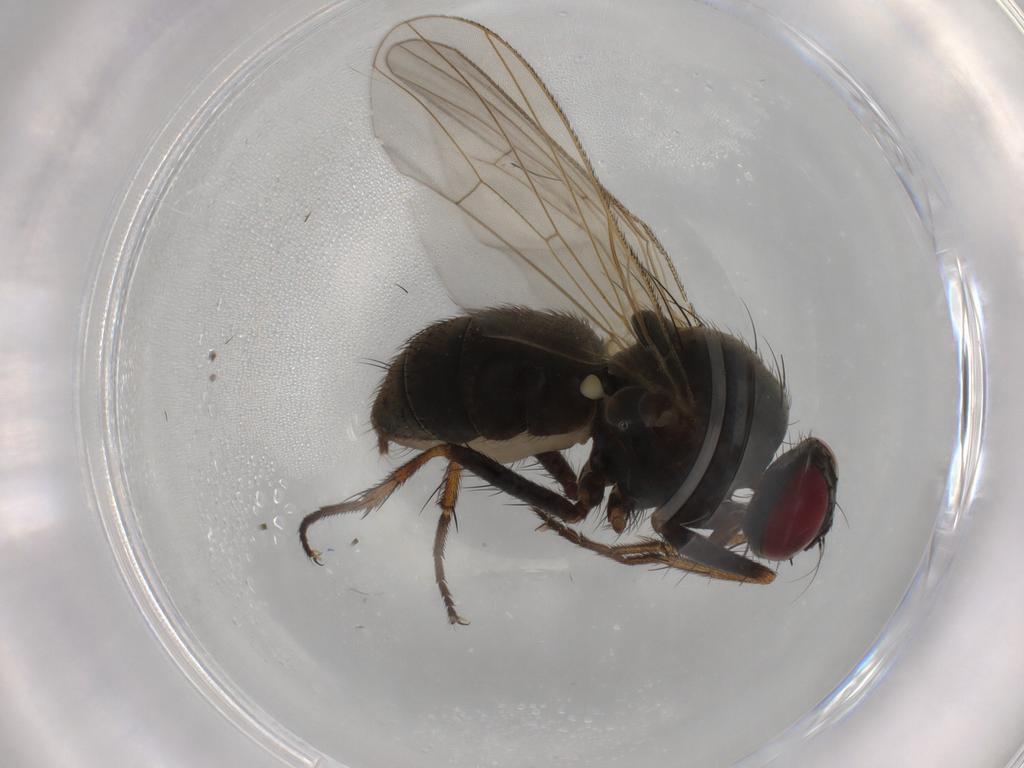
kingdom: Animalia
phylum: Arthropoda
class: Insecta
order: Diptera
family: Muscidae
